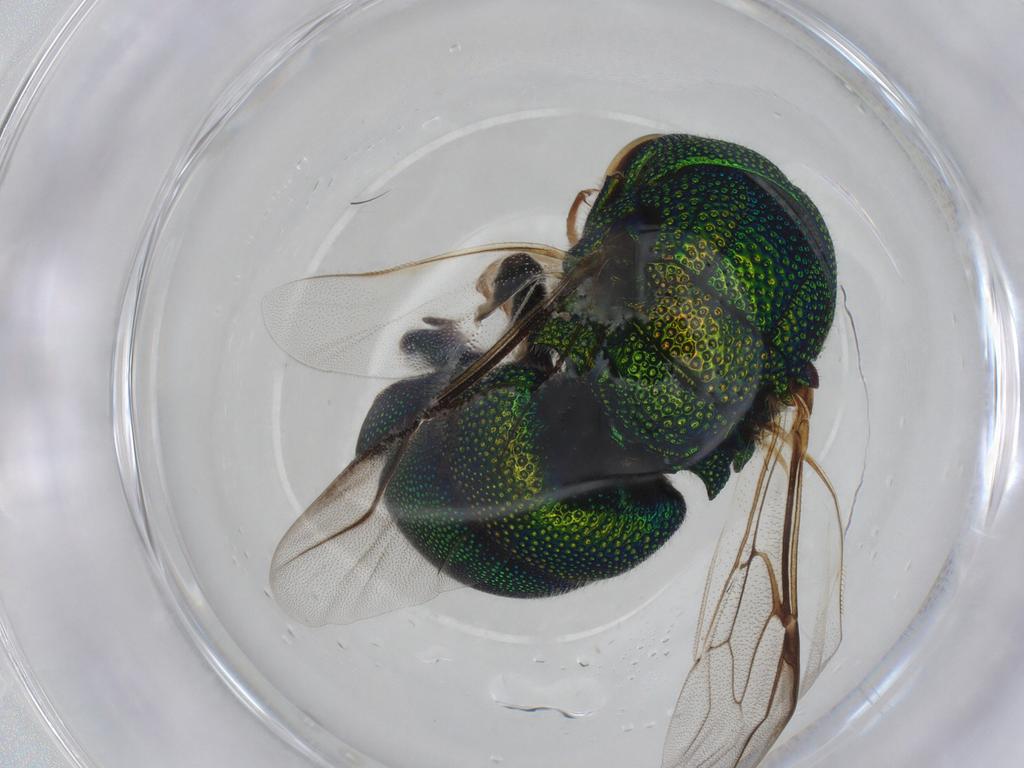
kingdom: Animalia
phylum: Arthropoda
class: Insecta
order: Hymenoptera
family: Chrysididae
